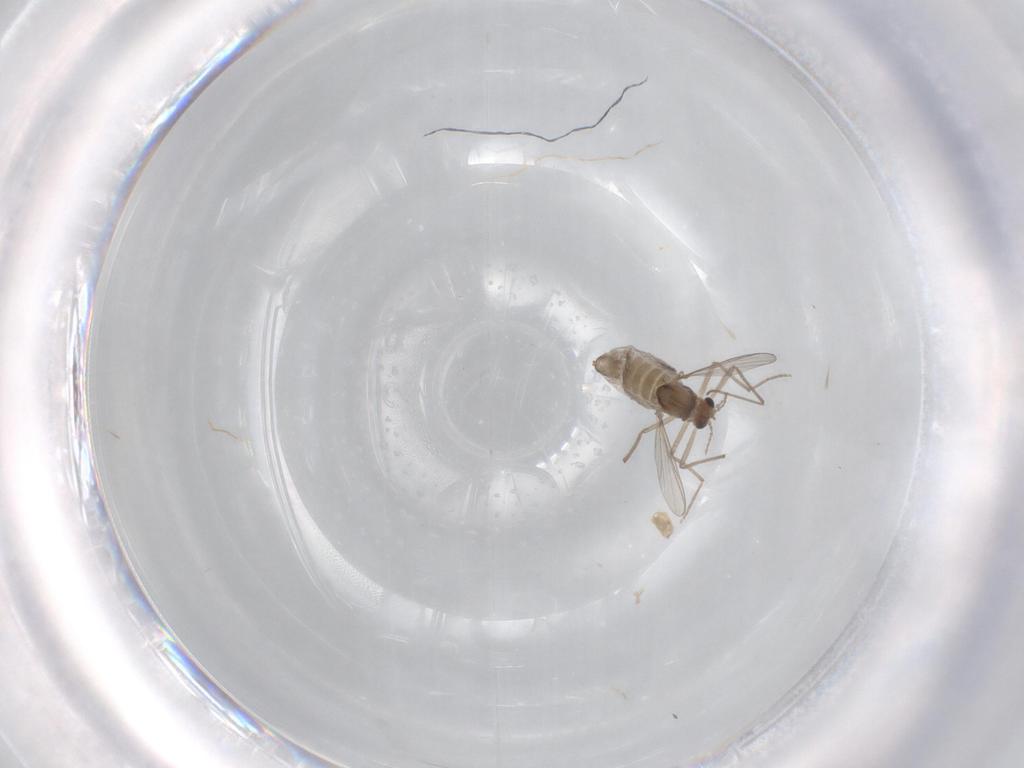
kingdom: Animalia
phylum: Arthropoda
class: Insecta
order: Diptera
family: Chironomidae
